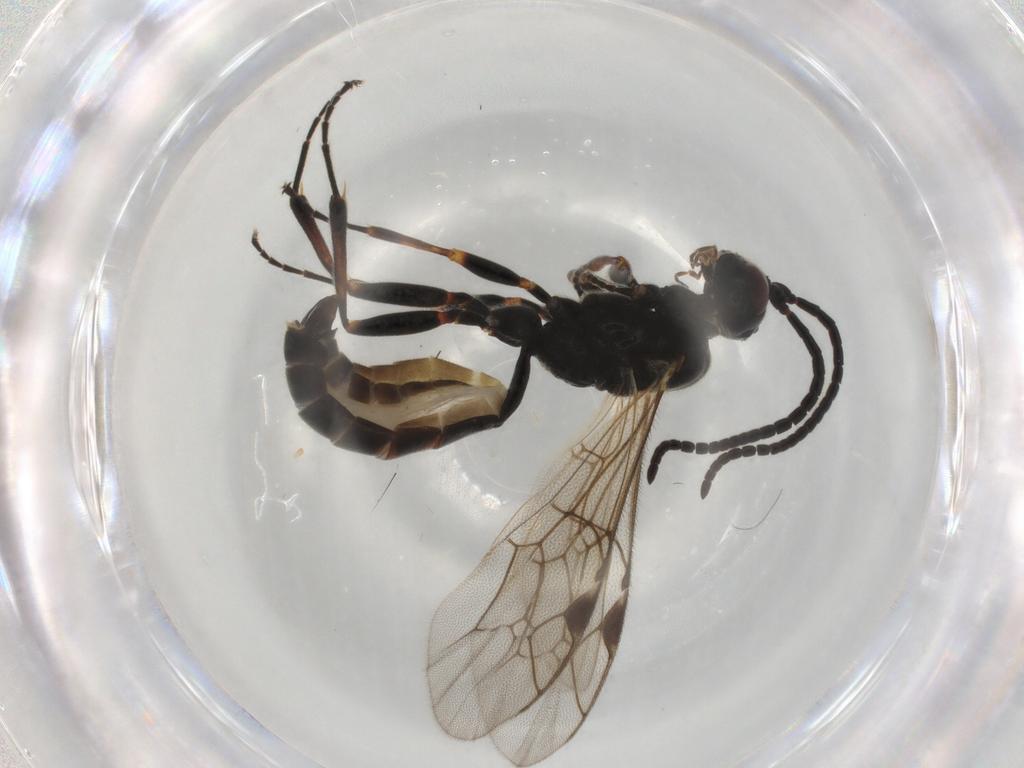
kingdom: Animalia
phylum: Arthropoda
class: Insecta
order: Hymenoptera
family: Ichneumonidae
